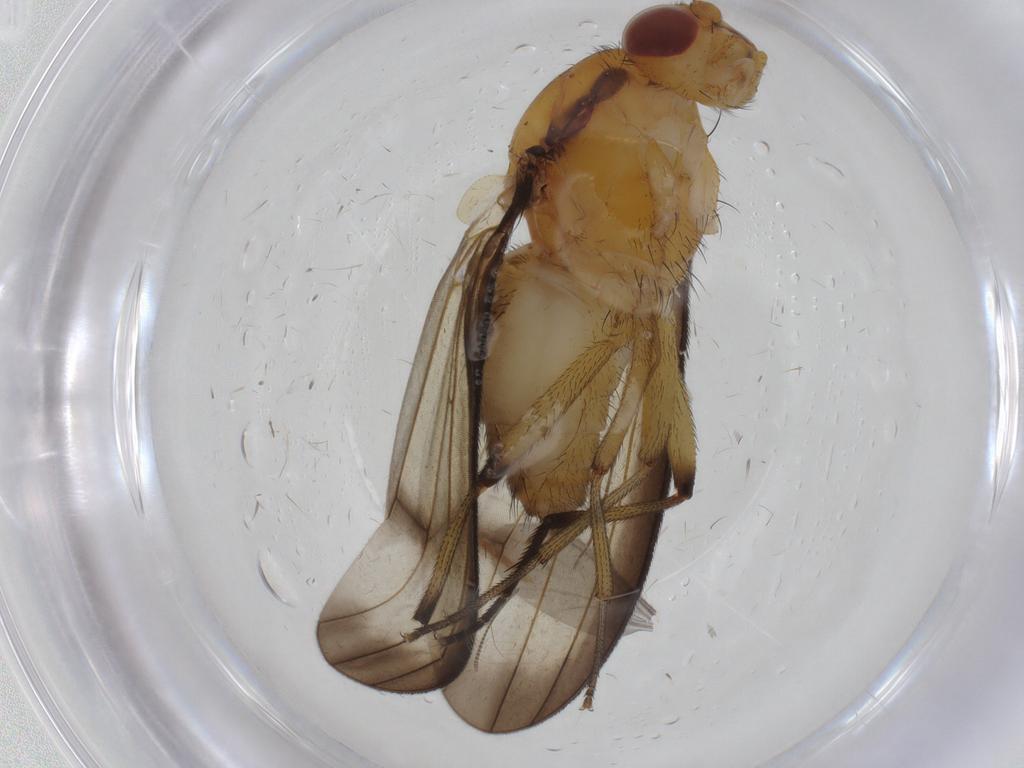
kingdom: Animalia
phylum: Arthropoda
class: Insecta
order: Diptera
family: Heleomyzidae
